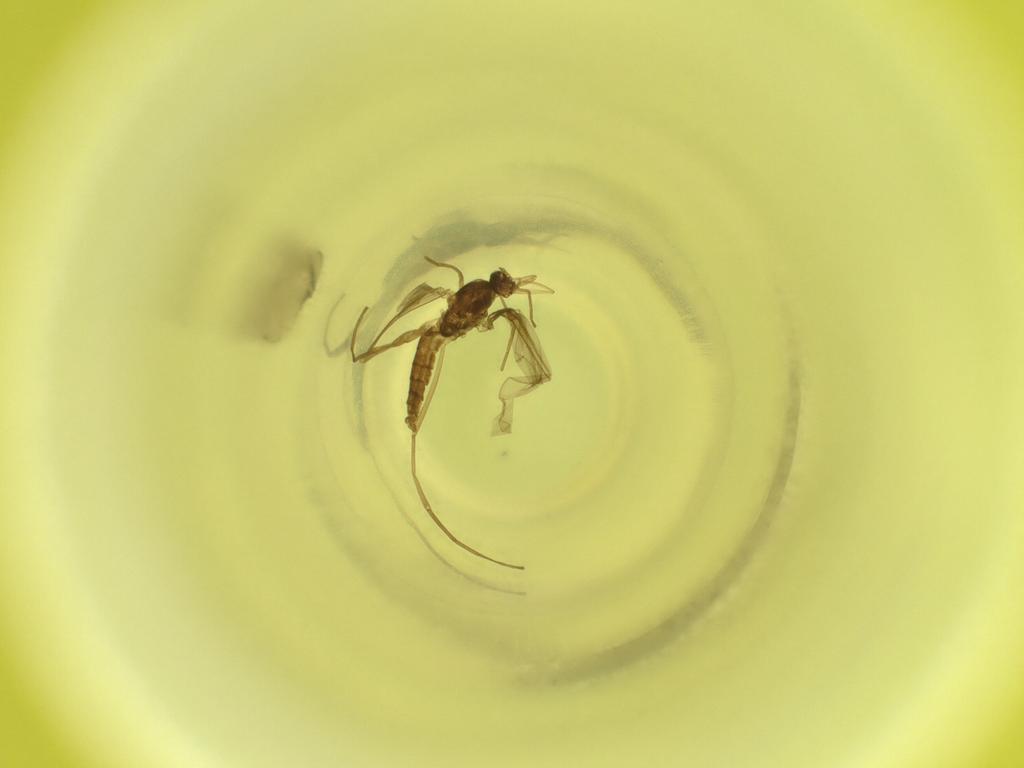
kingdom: Animalia
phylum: Arthropoda
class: Insecta
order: Diptera
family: Cecidomyiidae
